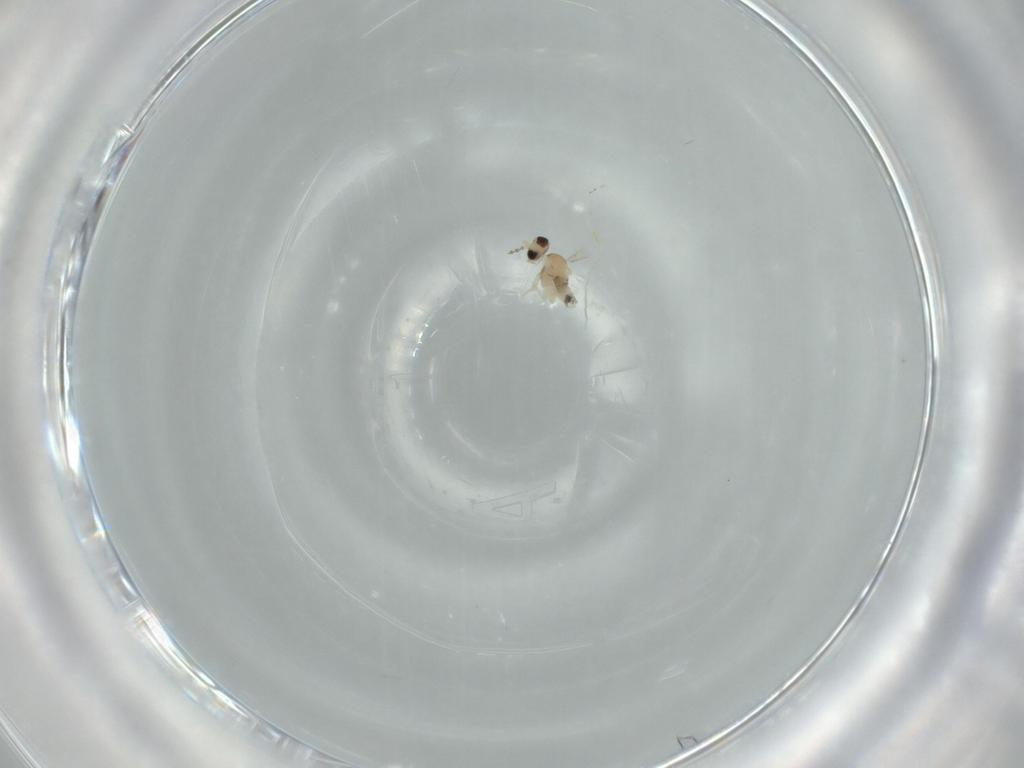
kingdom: Animalia
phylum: Arthropoda
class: Insecta
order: Diptera
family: Cecidomyiidae
